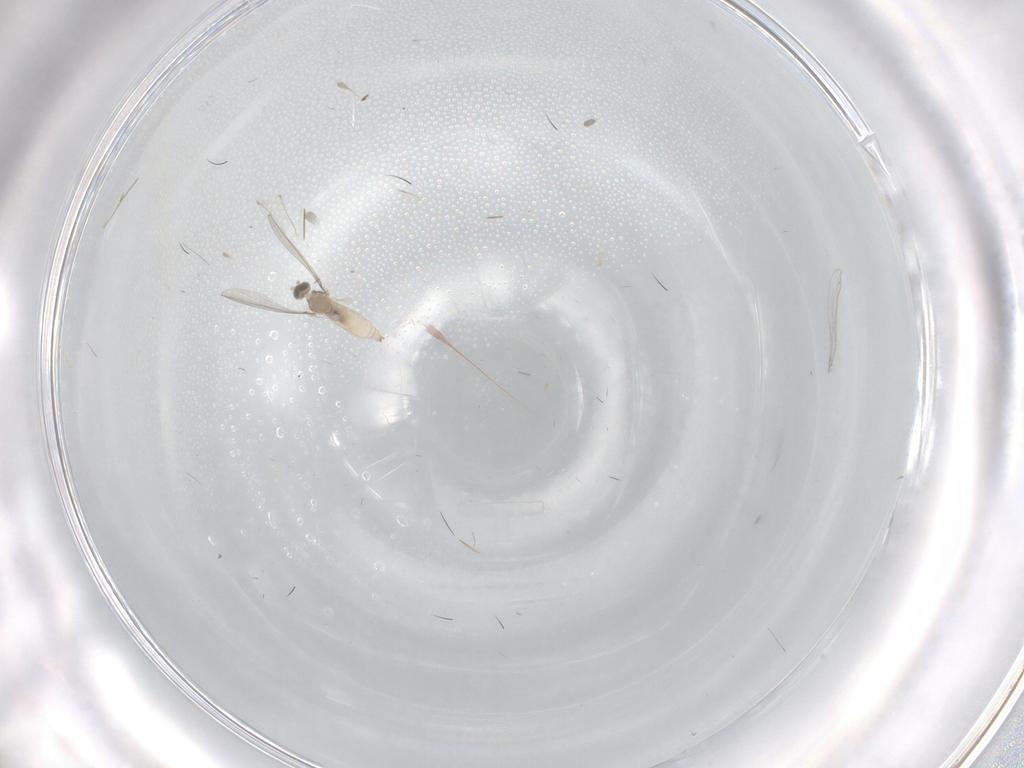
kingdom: Animalia
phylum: Arthropoda
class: Insecta
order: Diptera
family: Cecidomyiidae
